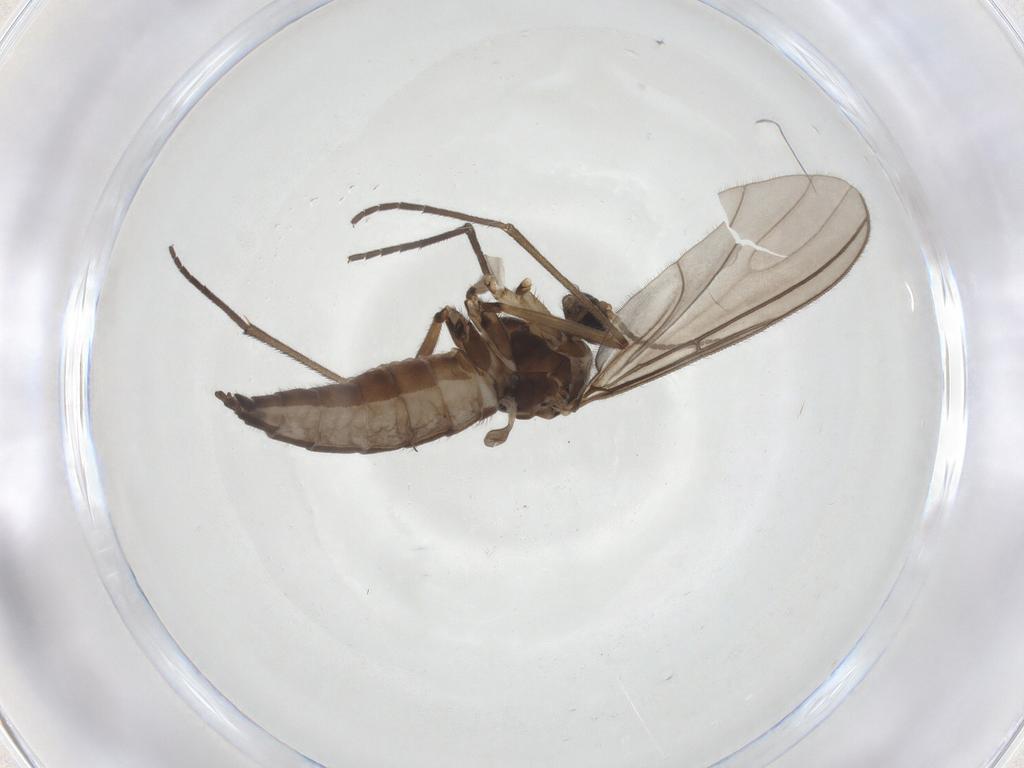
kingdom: Animalia
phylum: Arthropoda
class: Insecta
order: Diptera
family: Sciaridae
